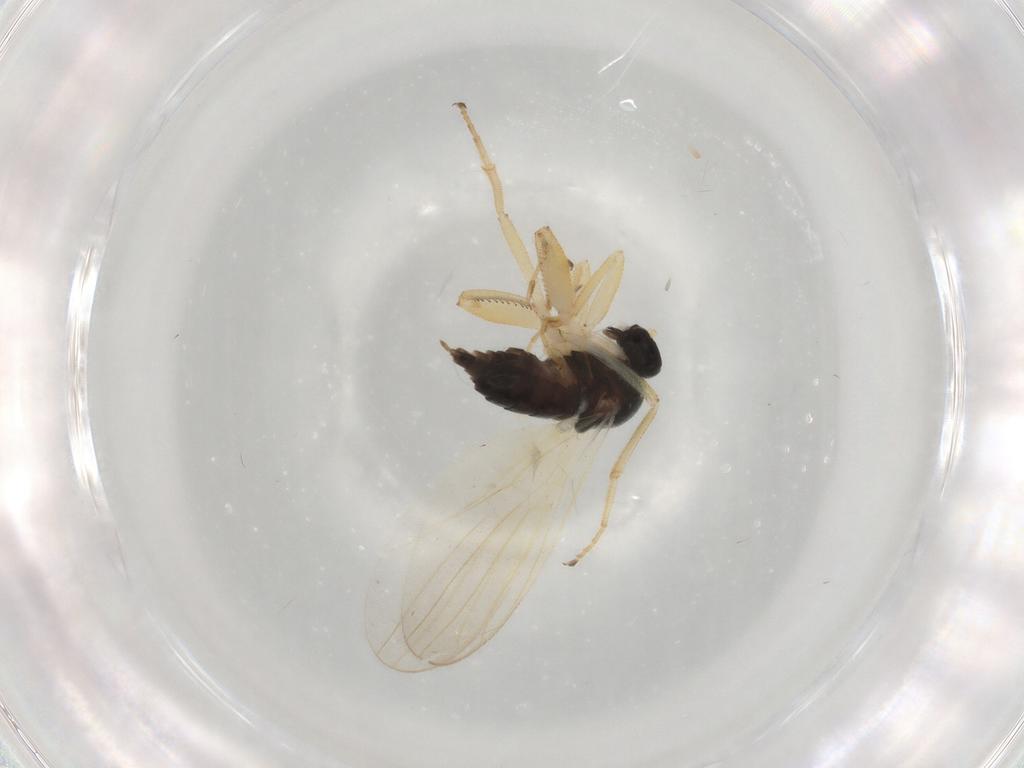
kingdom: Animalia
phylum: Arthropoda
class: Insecta
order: Diptera
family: Hybotidae
